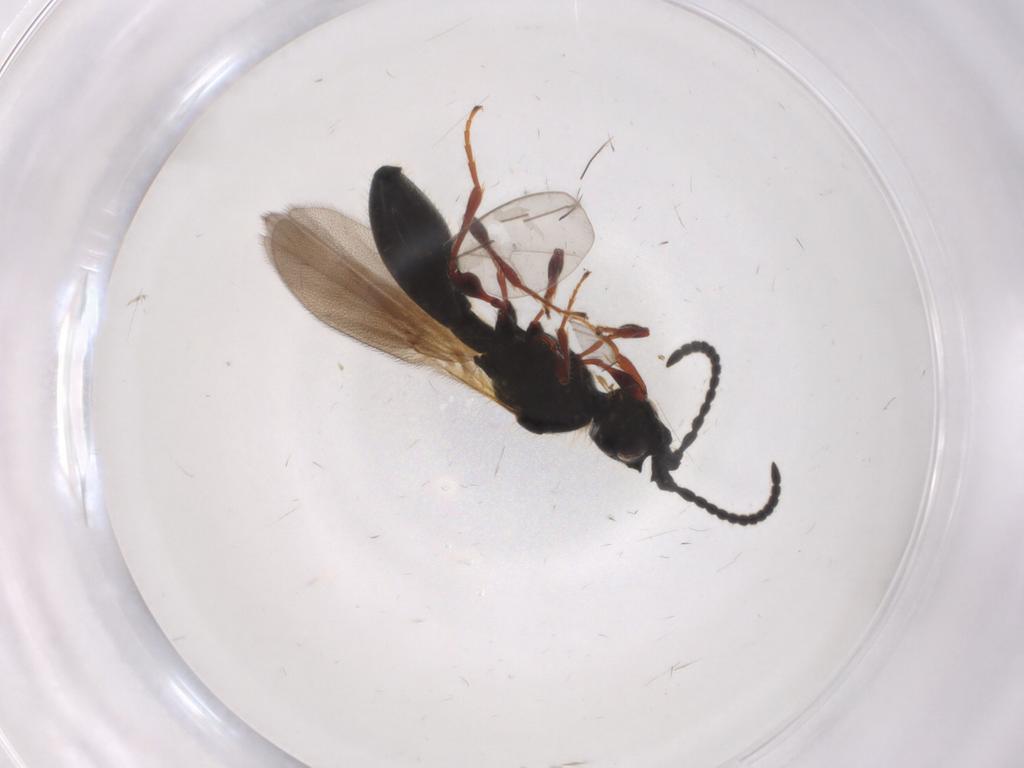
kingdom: Animalia
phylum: Arthropoda
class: Insecta
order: Hymenoptera
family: Diapriidae
